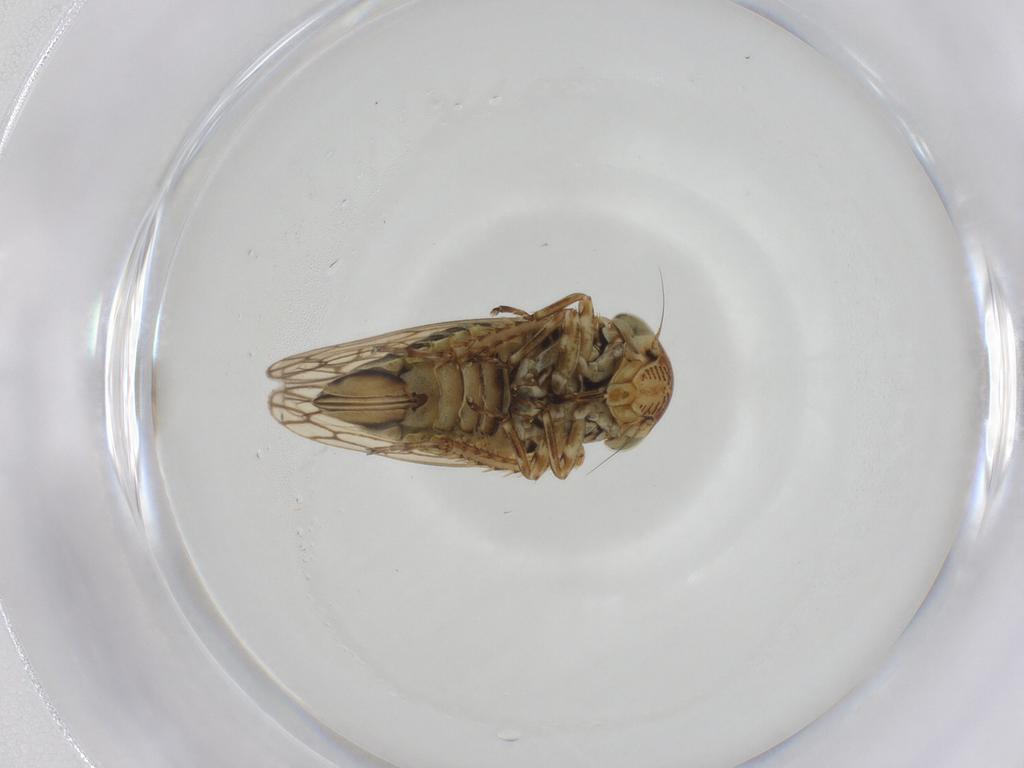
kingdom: Animalia
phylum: Arthropoda
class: Insecta
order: Hemiptera
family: Cicadellidae
